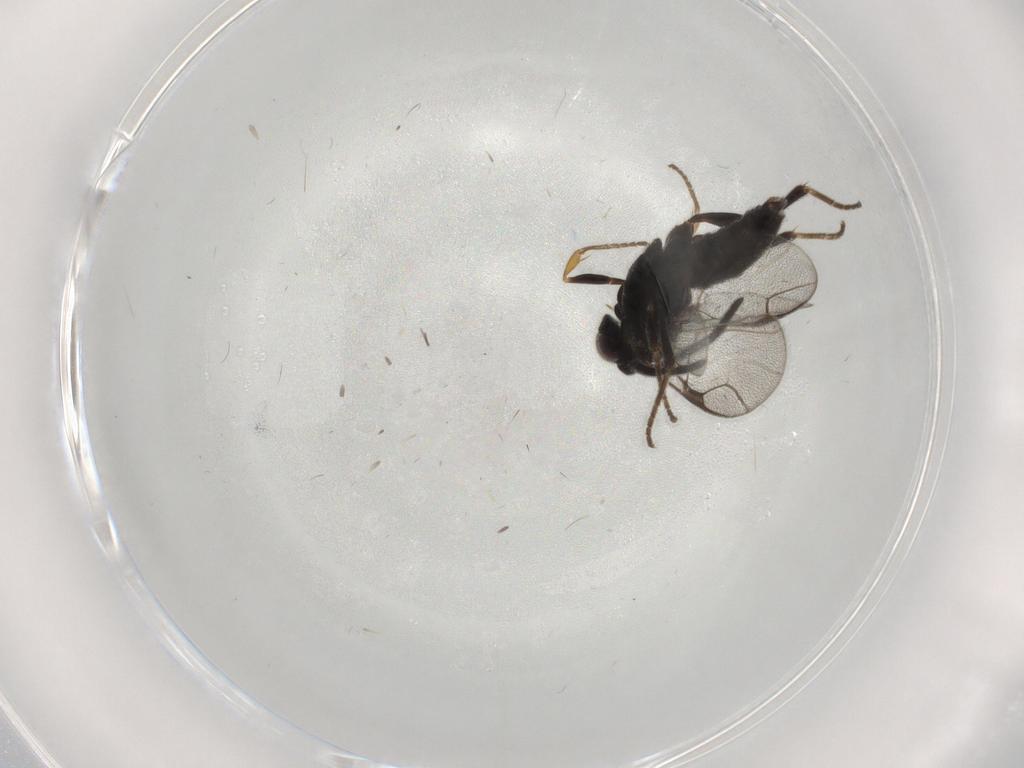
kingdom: Animalia
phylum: Arthropoda
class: Insecta
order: Hymenoptera
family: Dryinidae
